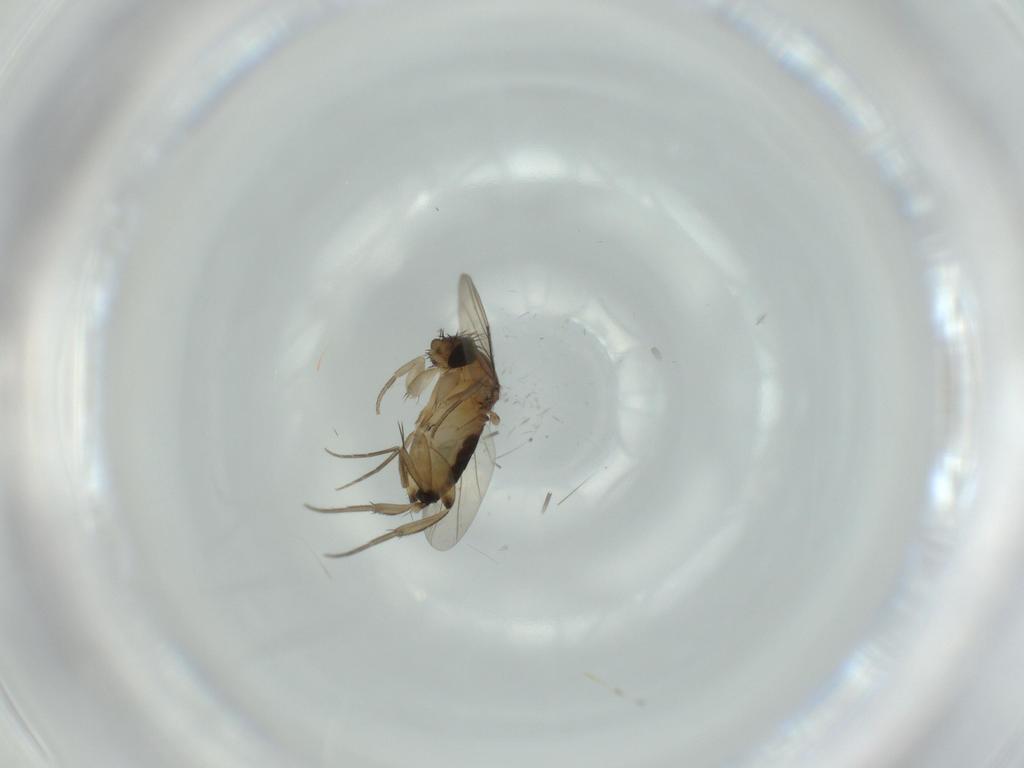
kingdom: Animalia
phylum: Arthropoda
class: Insecta
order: Diptera
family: Phoridae
